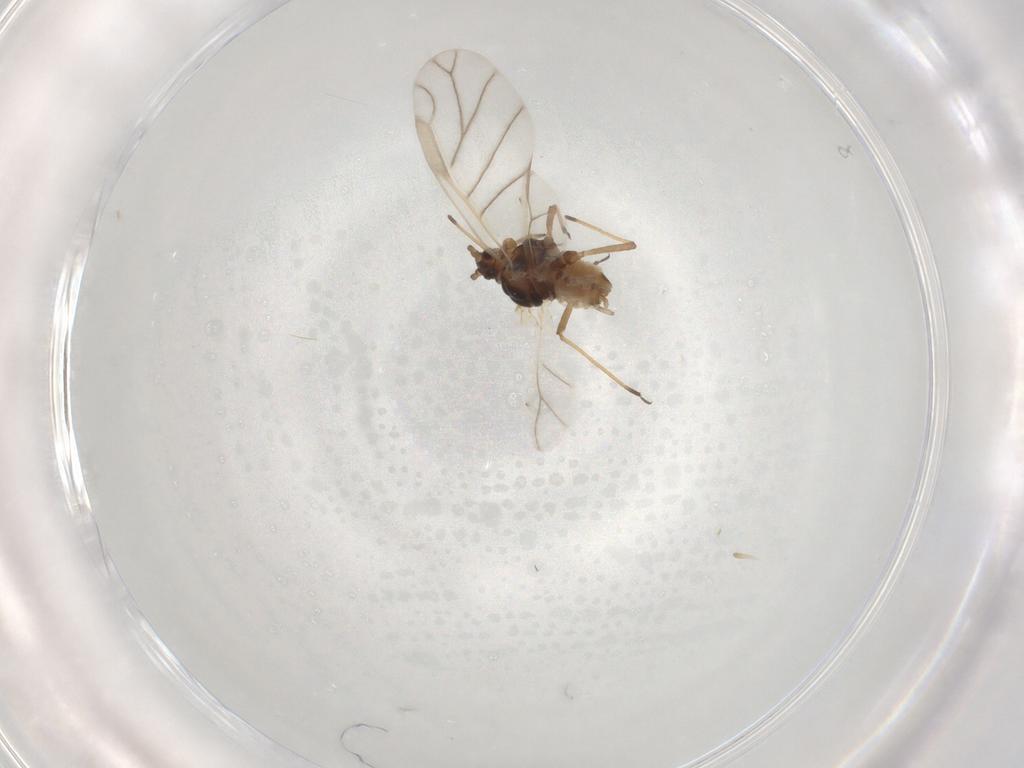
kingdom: Animalia
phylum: Arthropoda
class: Insecta
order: Hemiptera
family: Aphididae
